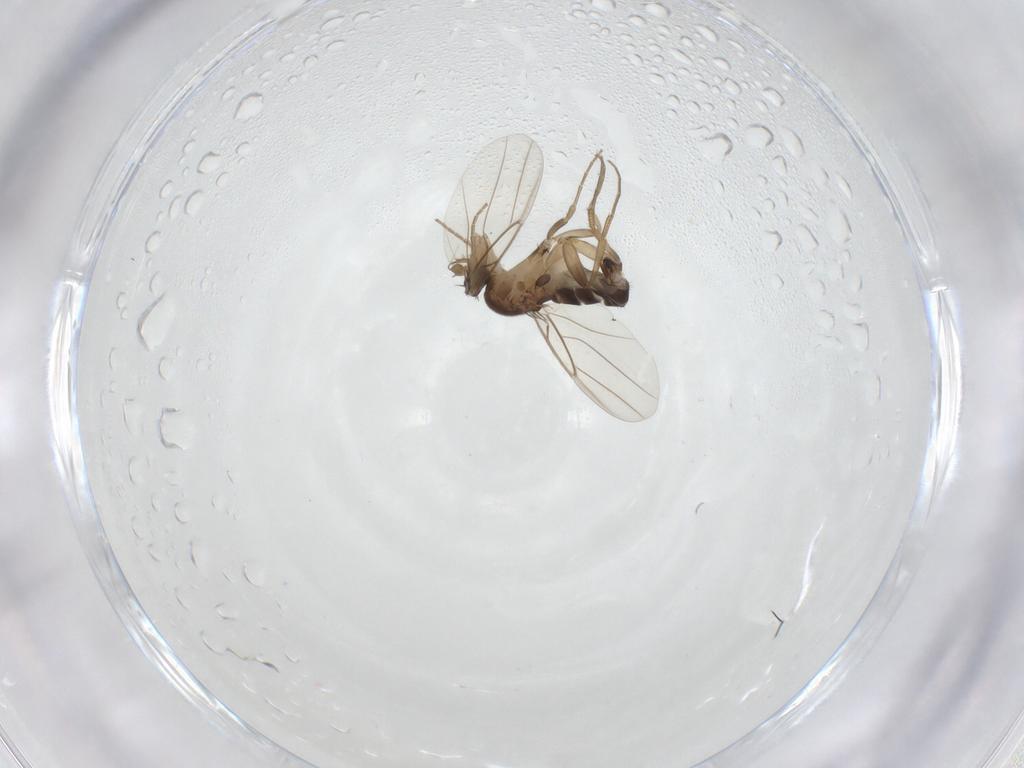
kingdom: Animalia
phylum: Arthropoda
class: Insecta
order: Diptera
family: Phoridae
